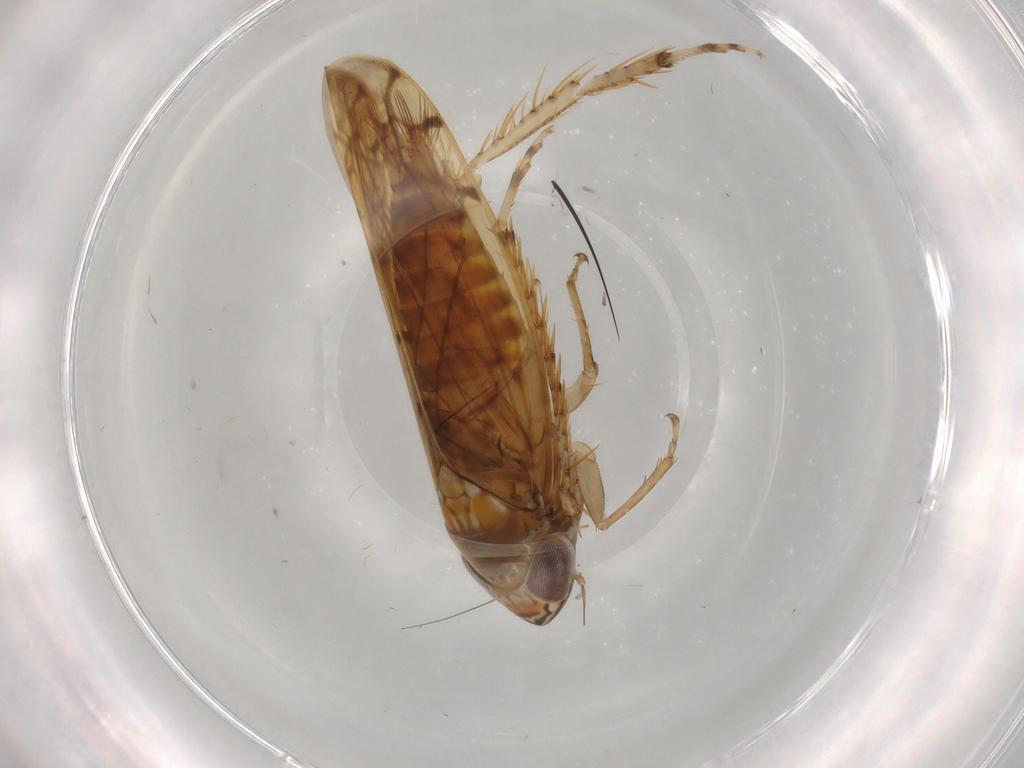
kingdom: Animalia
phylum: Arthropoda
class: Insecta
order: Hemiptera
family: Cicadellidae
